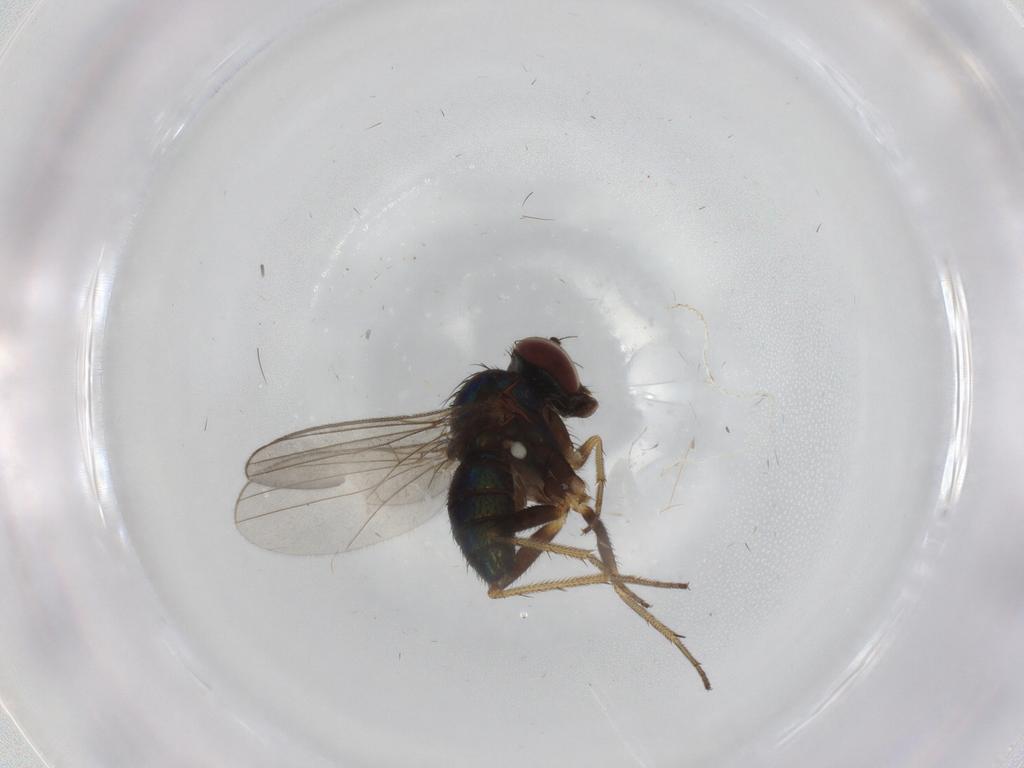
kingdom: Animalia
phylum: Arthropoda
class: Insecta
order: Diptera
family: Dolichopodidae
